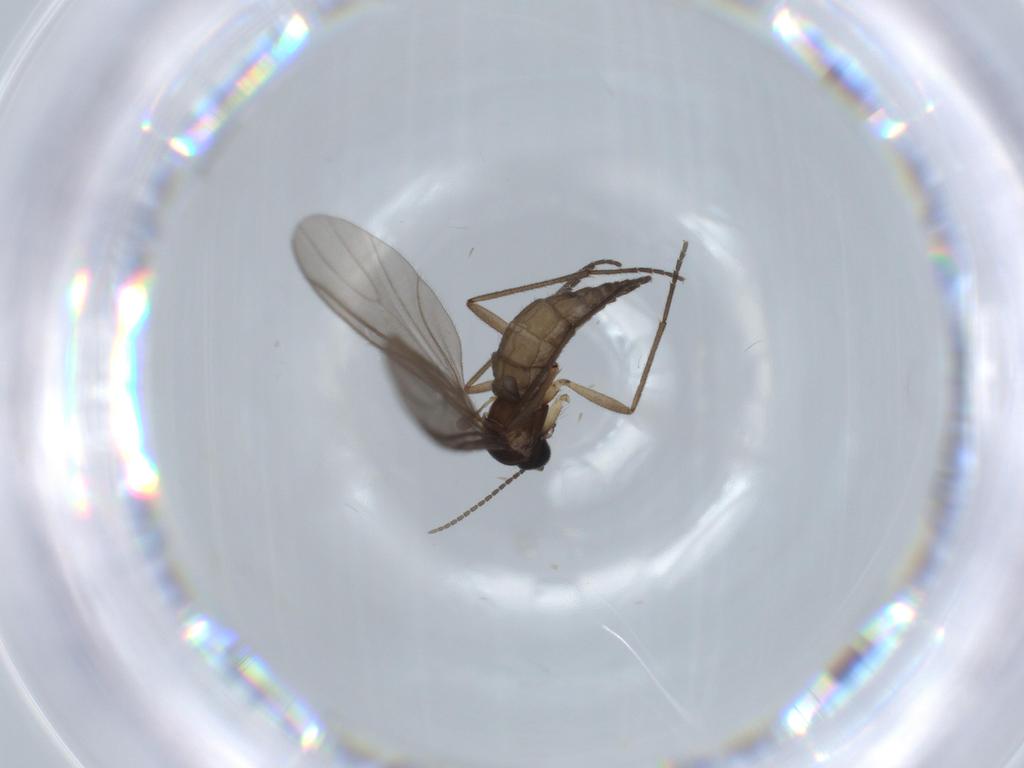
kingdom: Animalia
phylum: Arthropoda
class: Insecta
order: Diptera
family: Sciaridae
